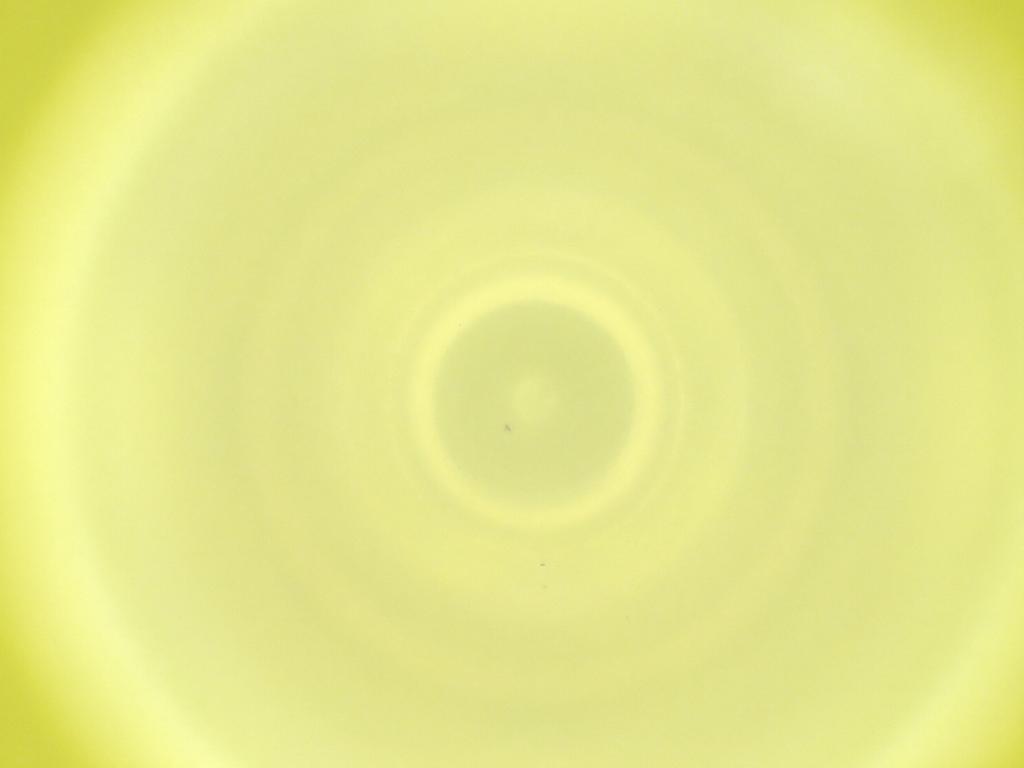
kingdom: Animalia
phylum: Arthropoda
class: Insecta
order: Diptera
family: Cecidomyiidae
